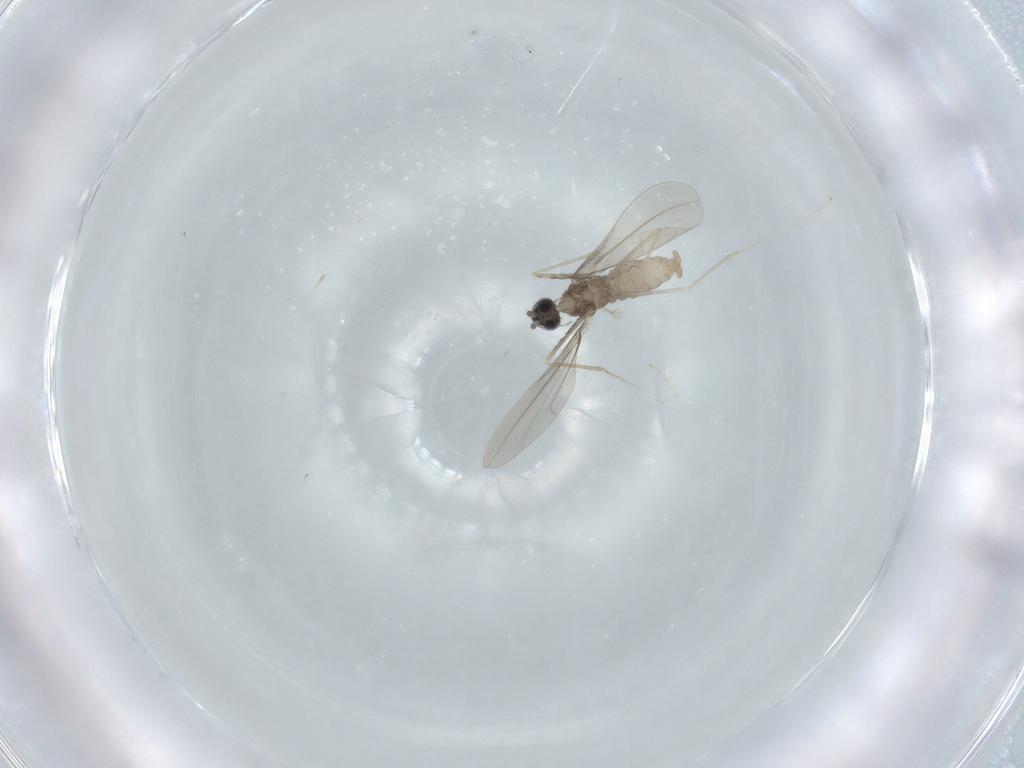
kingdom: Animalia
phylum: Arthropoda
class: Insecta
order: Diptera
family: Cecidomyiidae
